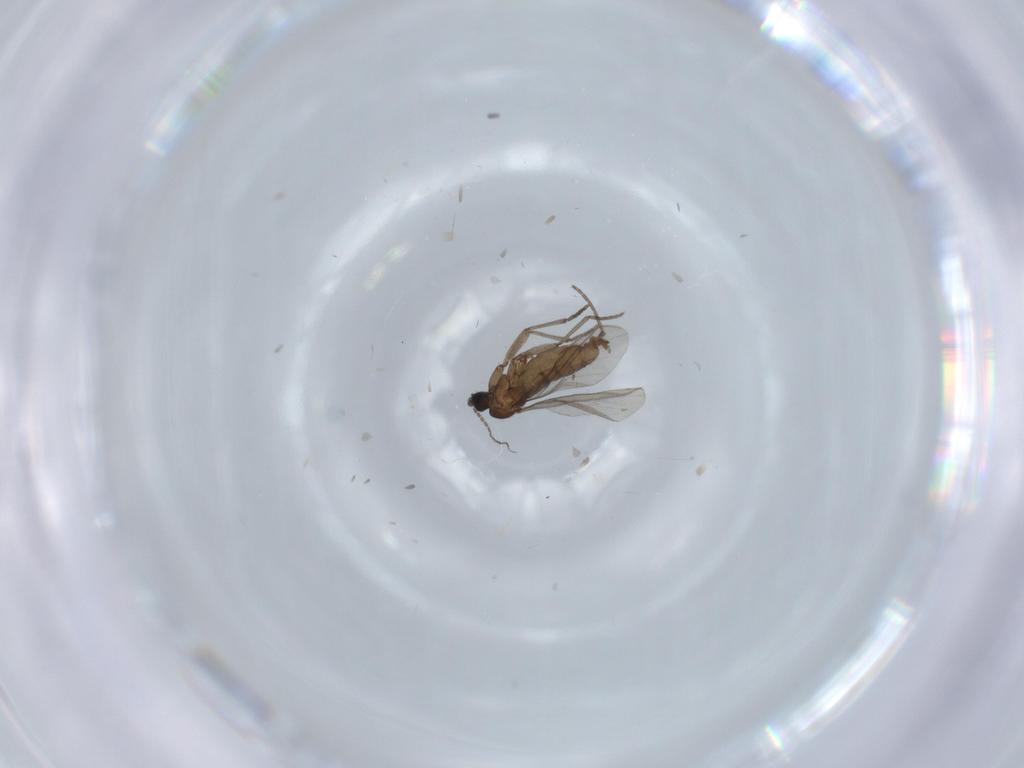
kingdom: Animalia
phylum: Arthropoda
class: Insecta
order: Diptera
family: Sciaridae
